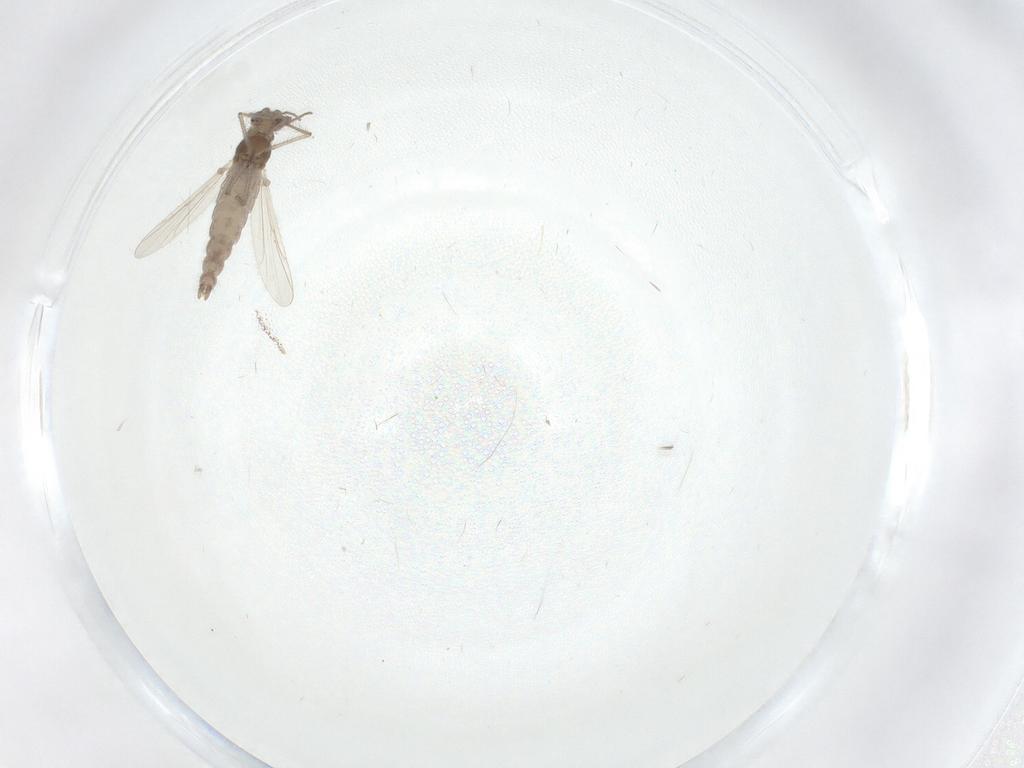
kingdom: Animalia
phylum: Arthropoda
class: Insecta
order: Diptera
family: Chironomidae
